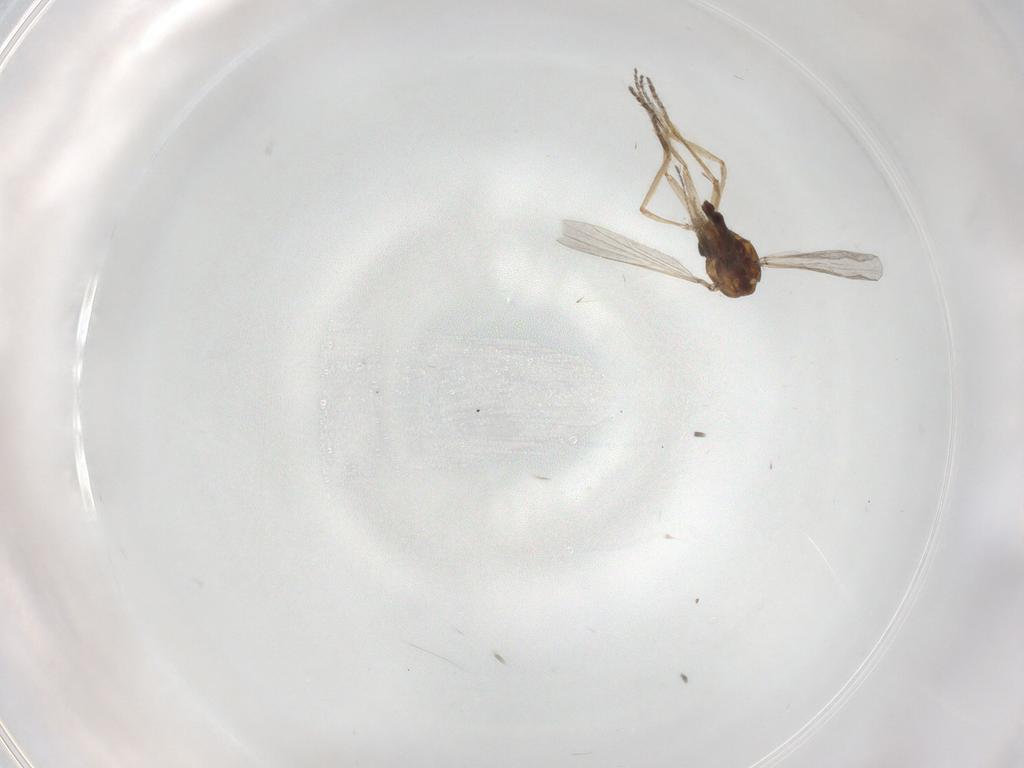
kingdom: Animalia
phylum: Arthropoda
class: Insecta
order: Diptera
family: Ceratopogonidae
